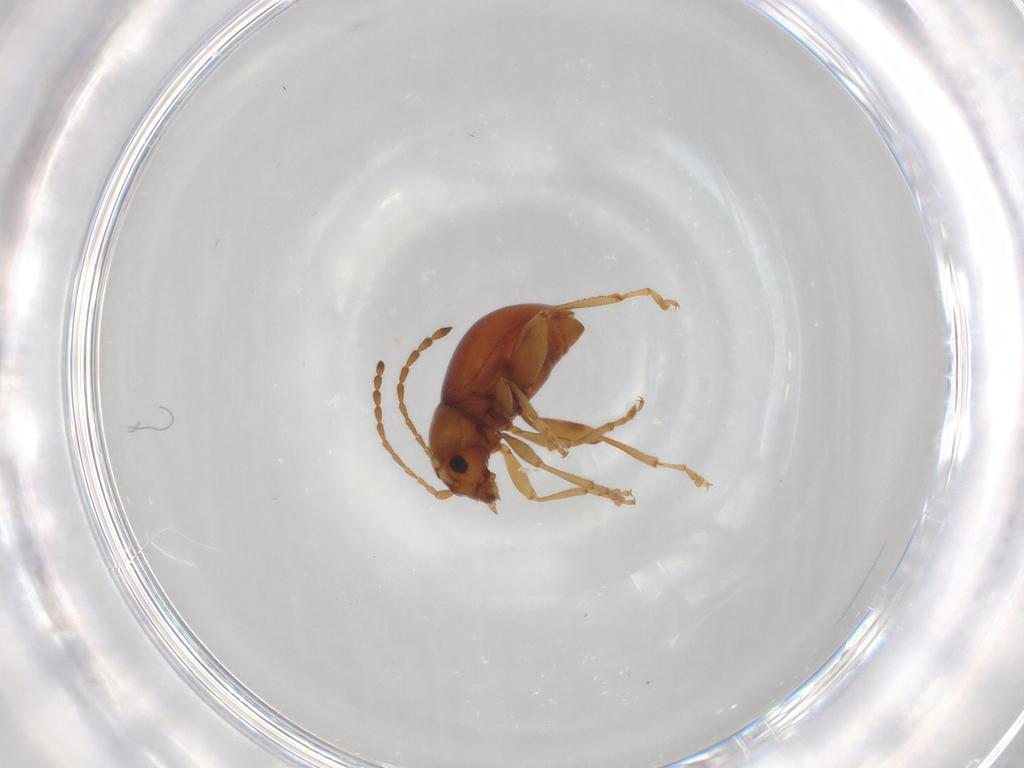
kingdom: Animalia
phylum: Arthropoda
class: Insecta
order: Coleoptera
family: Chrysomelidae
